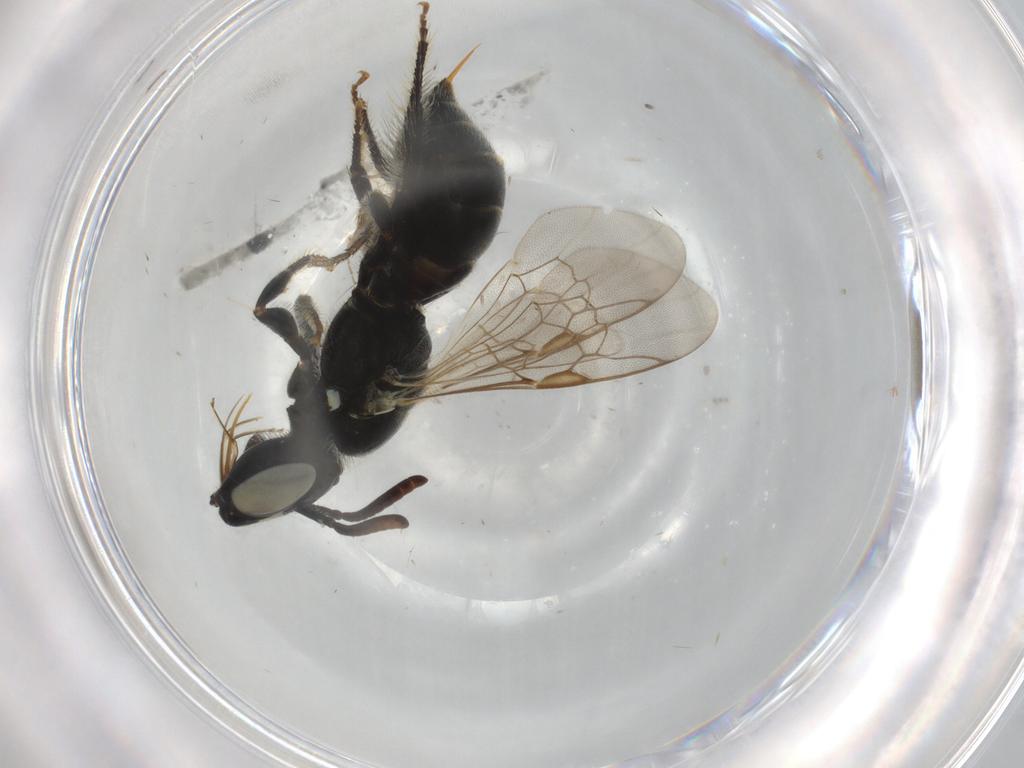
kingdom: Animalia
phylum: Arthropoda
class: Insecta
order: Hymenoptera
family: Apidae
